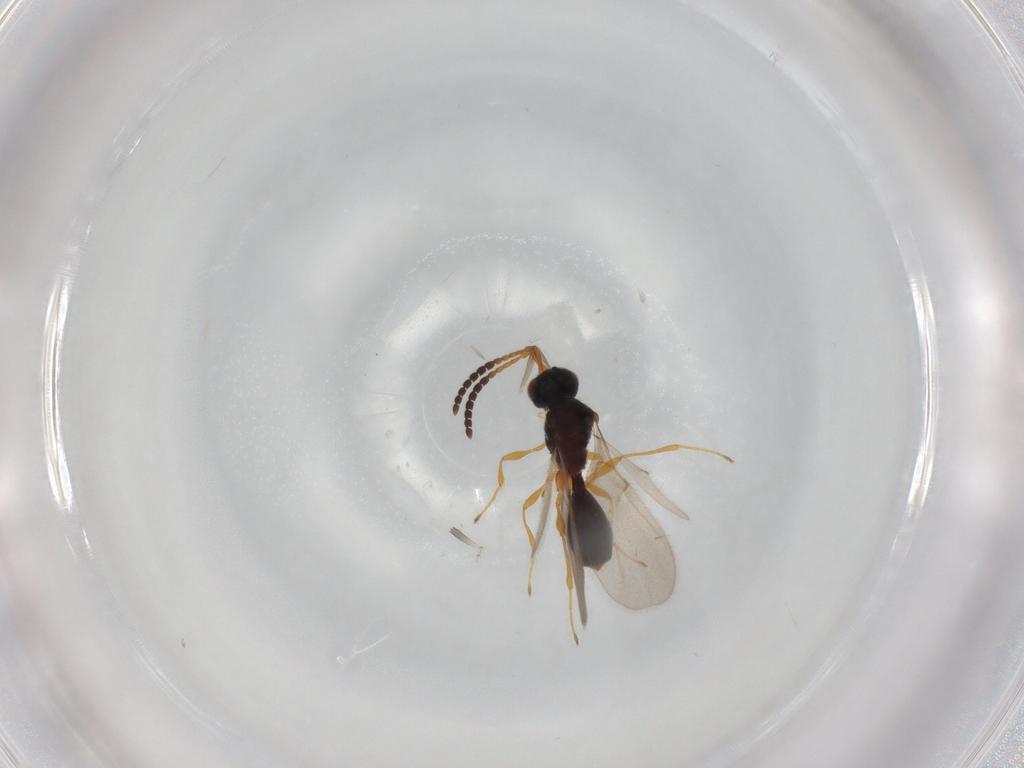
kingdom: Animalia
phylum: Arthropoda
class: Insecta
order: Hymenoptera
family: Diapriidae
